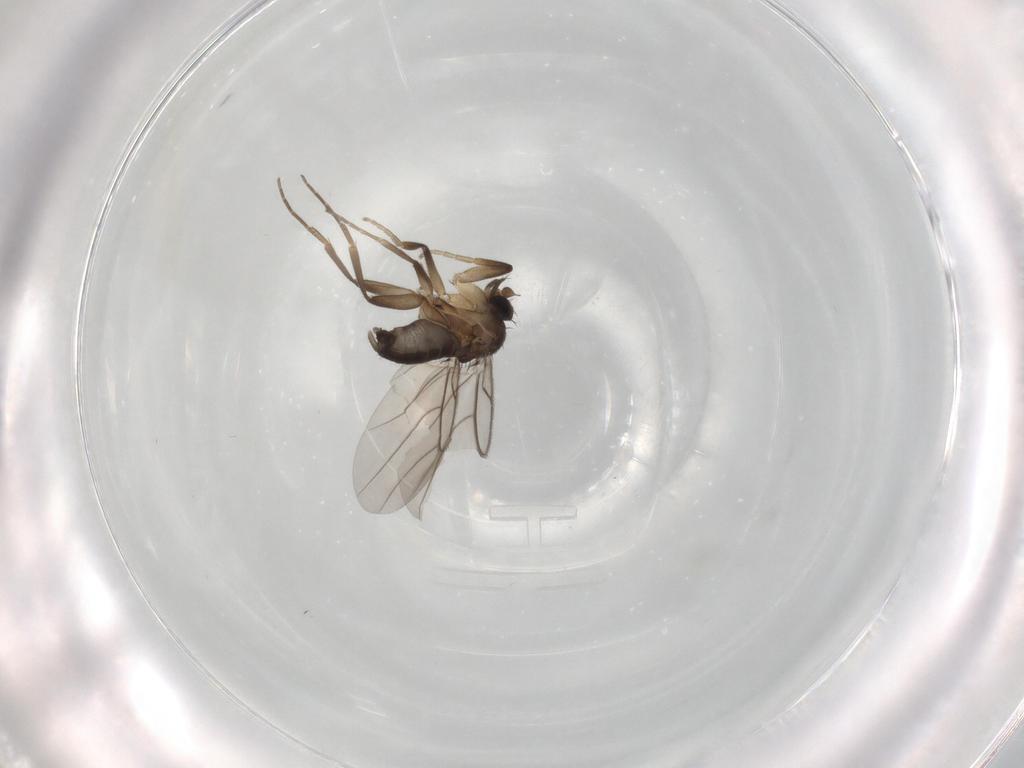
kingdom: Animalia
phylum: Arthropoda
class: Insecta
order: Diptera
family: Phoridae
